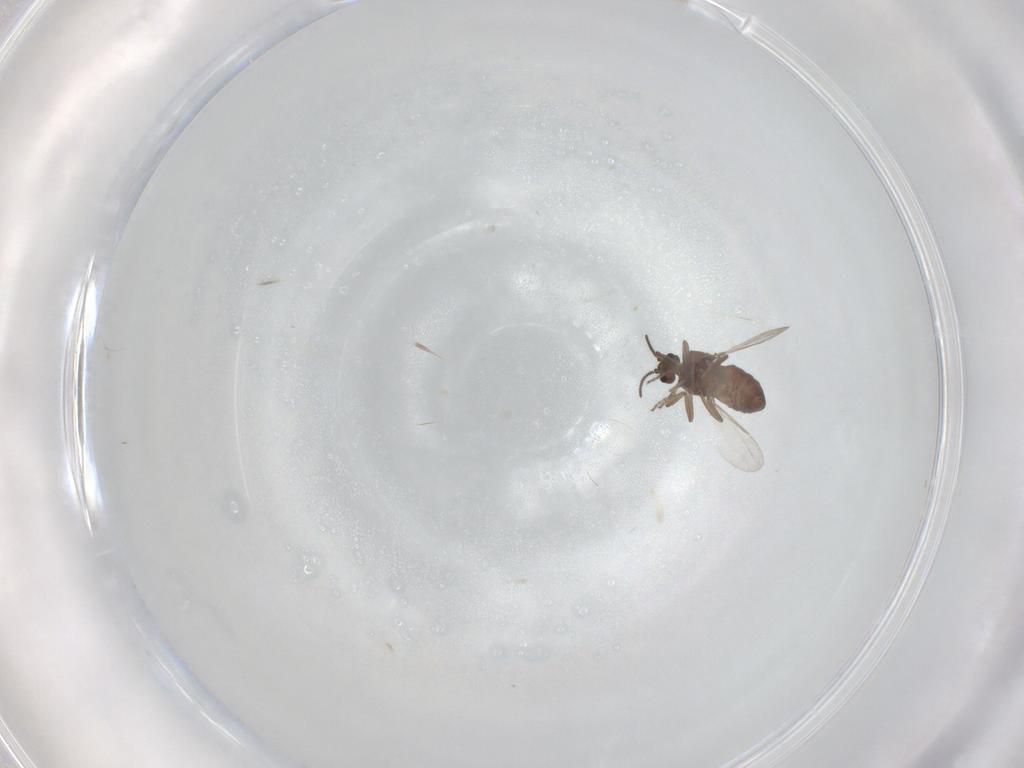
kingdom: Animalia
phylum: Arthropoda
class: Insecta
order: Diptera
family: Ceratopogonidae
